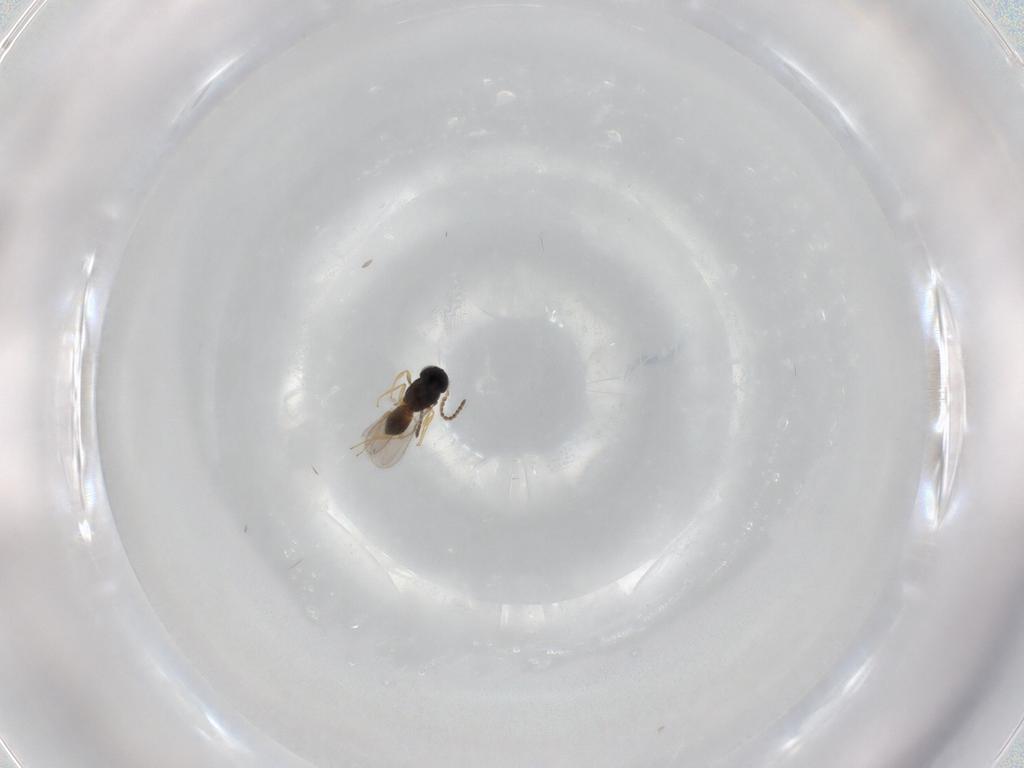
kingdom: Animalia
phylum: Arthropoda
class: Insecta
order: Hymenoptera
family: Scelionidae
